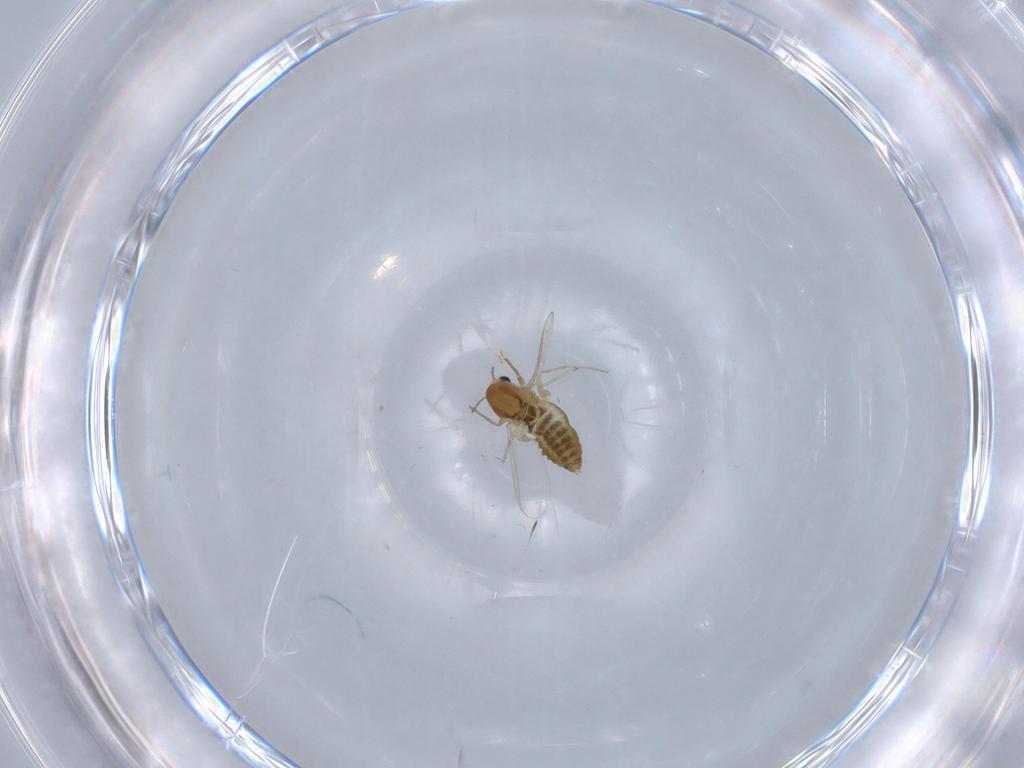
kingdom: Animalia
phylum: Arthropoda
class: Insecta
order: Diptera
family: Chironomidae
